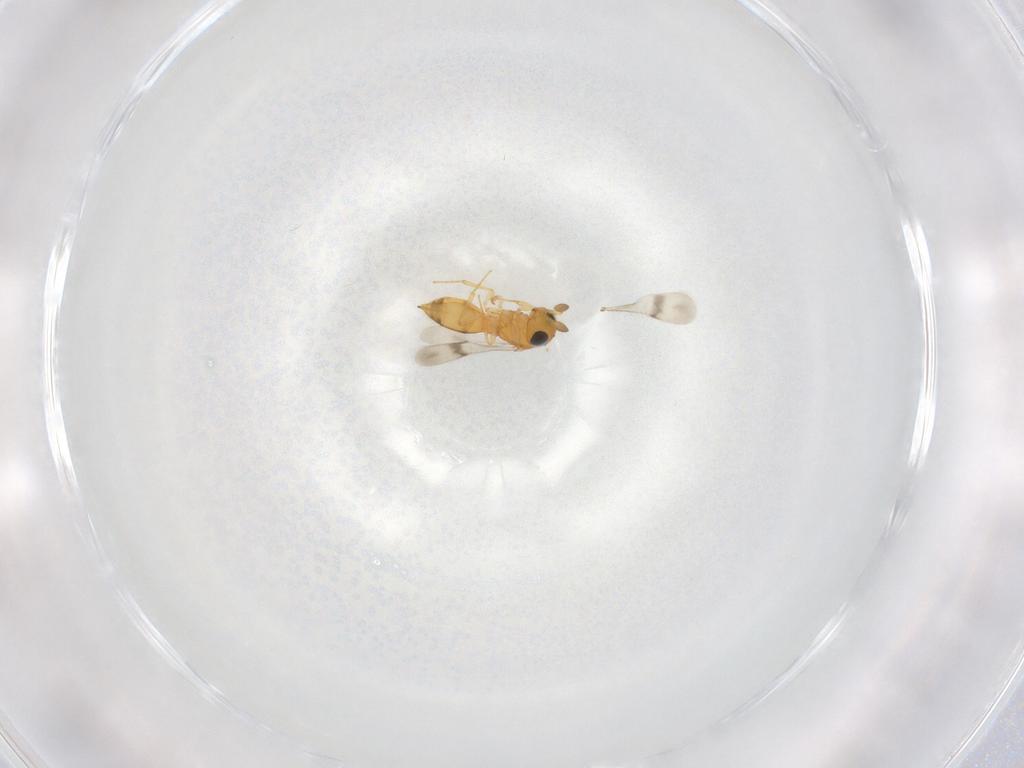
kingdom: Animalia
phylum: Arthropoda
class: Insecta
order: Hymenoptera
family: Scelionidae
